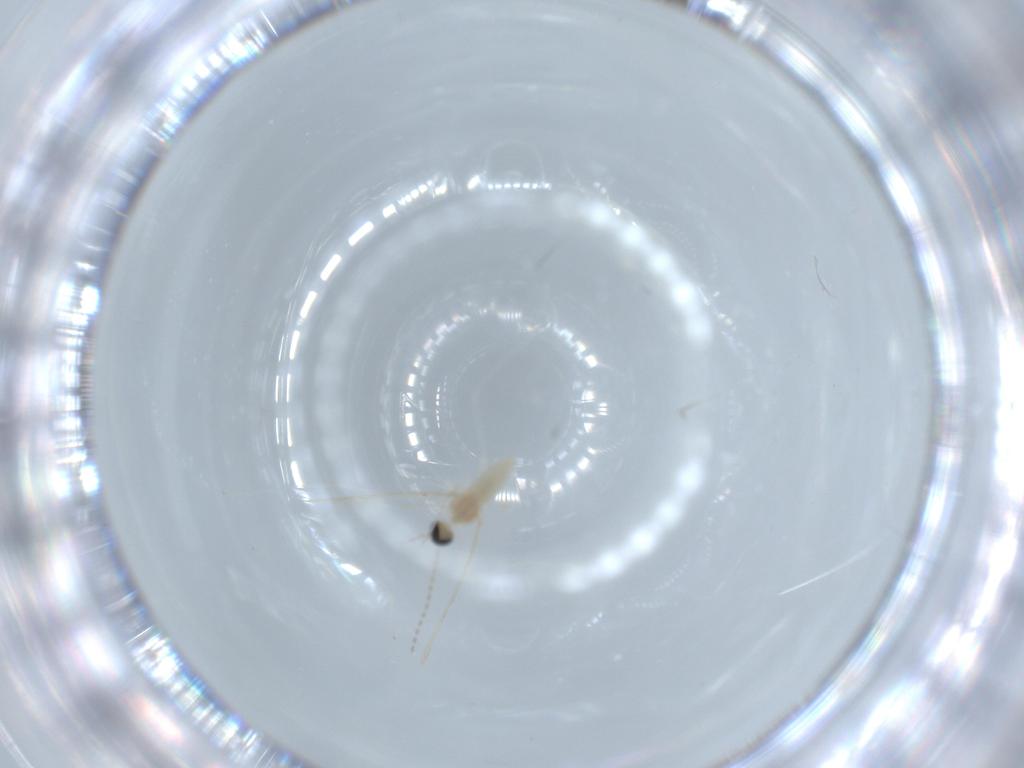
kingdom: Animalia
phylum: Arthropoda
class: Insecta
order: Diptera
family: Cecidomyiidae
